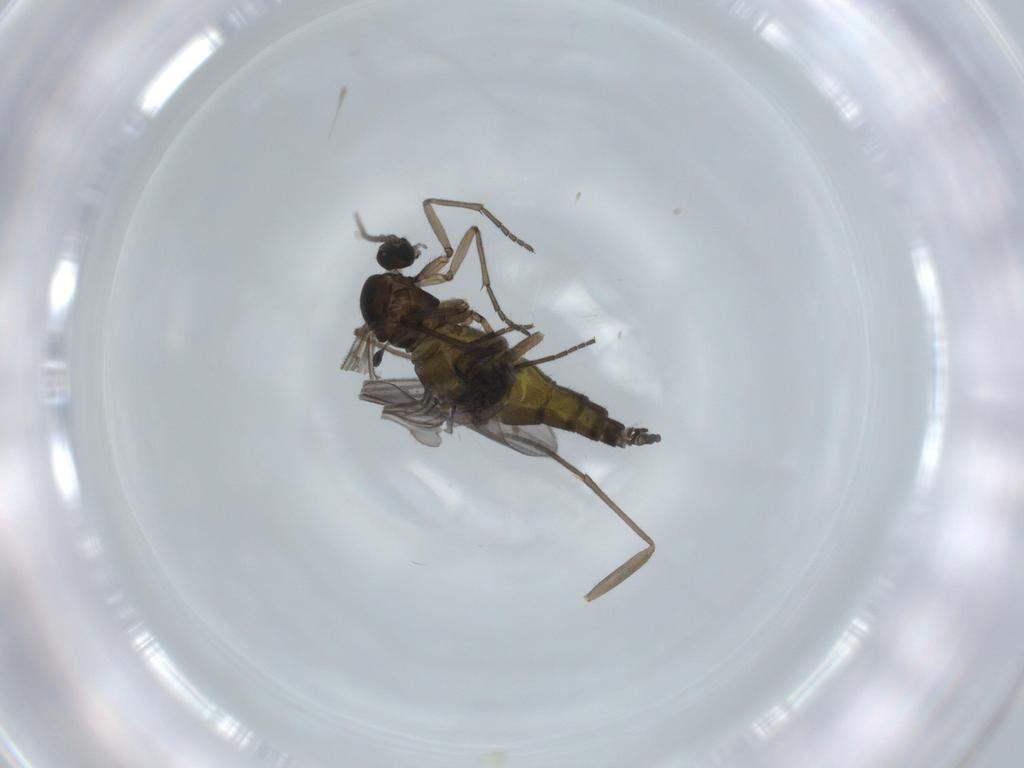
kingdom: Animalia
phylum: Arthropoda
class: Insecta
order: Diptera
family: Sciaridae
